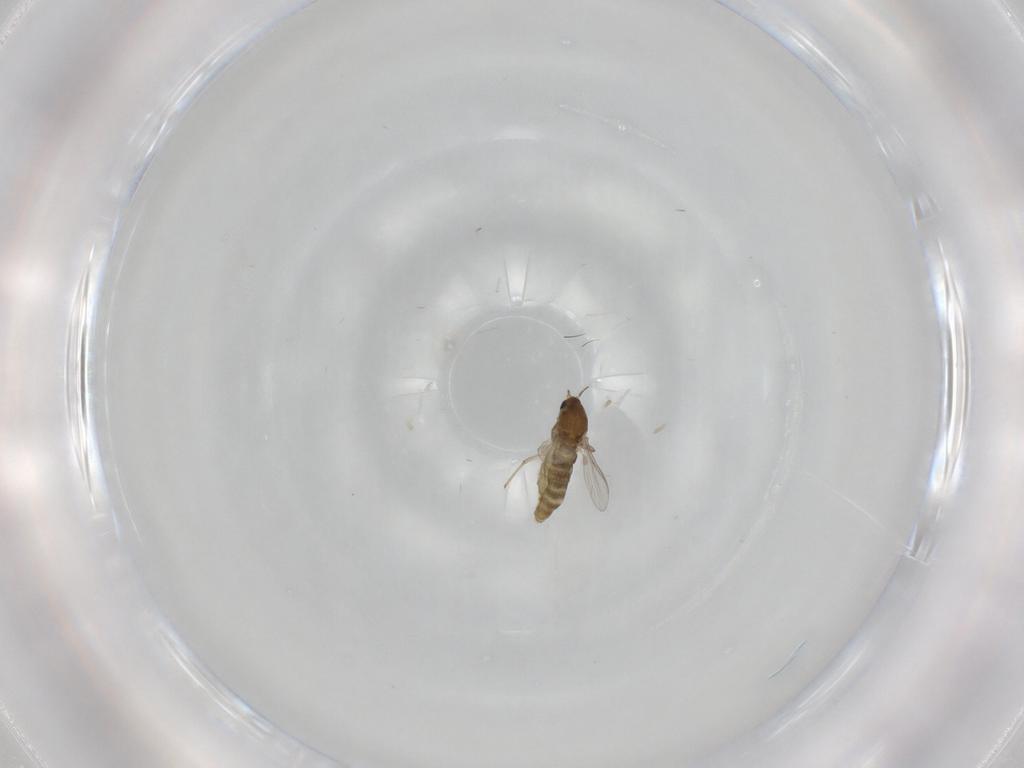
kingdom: Animalia
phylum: Arthropoda
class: Insecta
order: Diptera
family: Chironomidae
